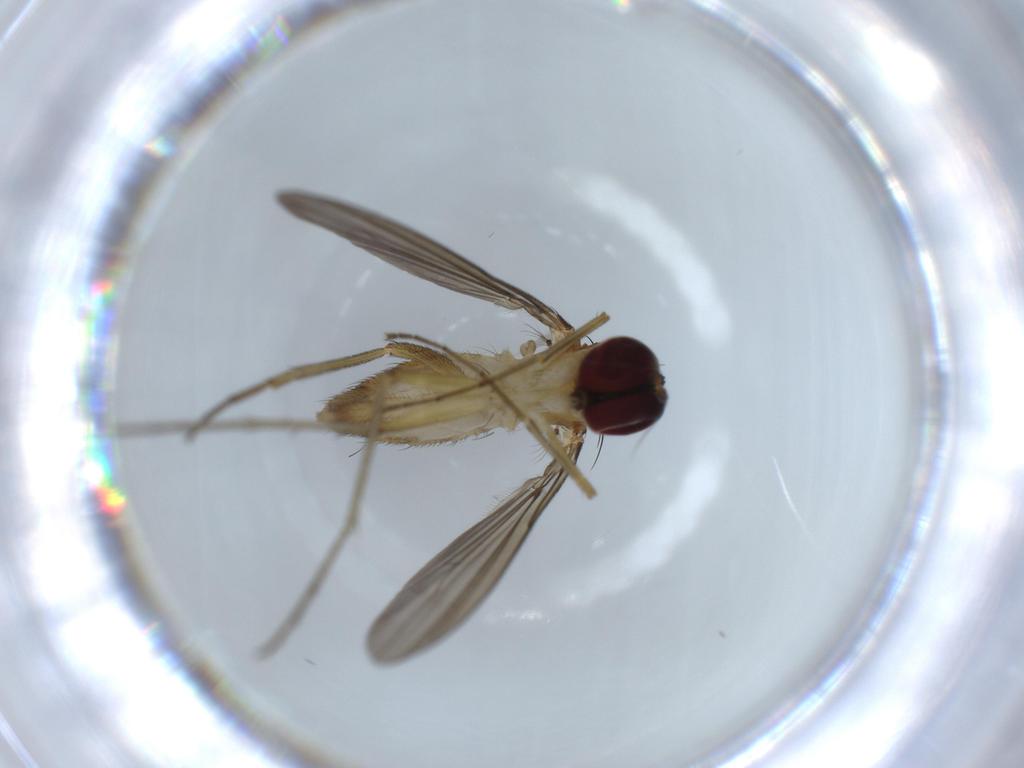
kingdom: Animalia
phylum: Arthropoda
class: Insecta
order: Diptera
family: Dolichopodidae
